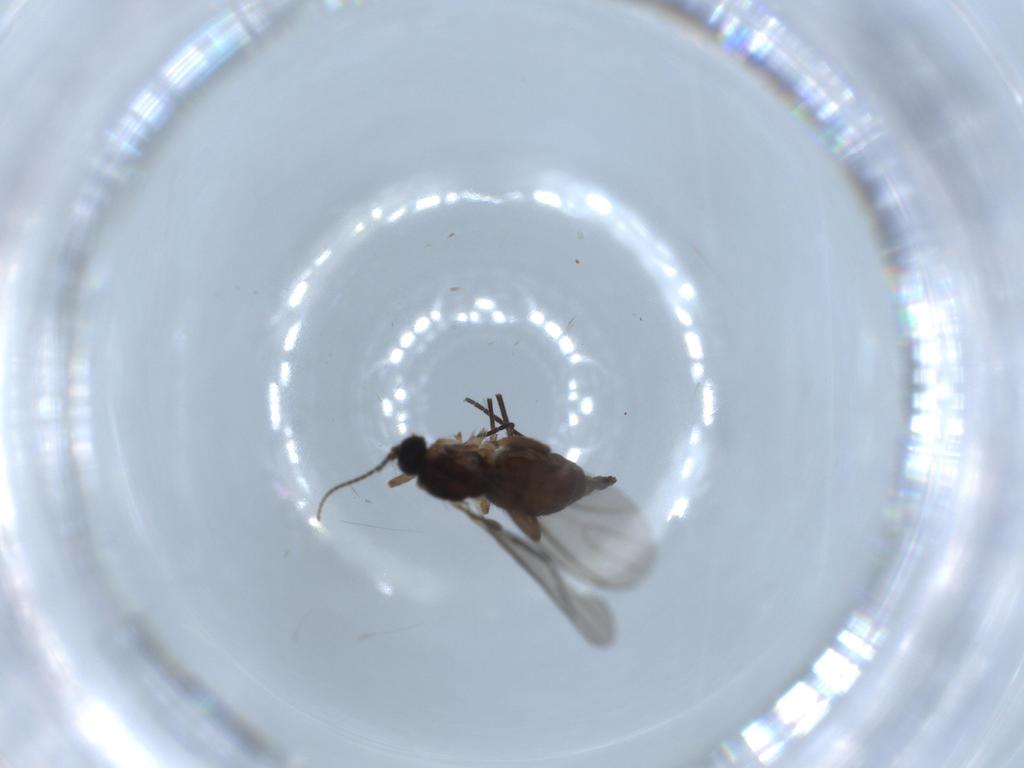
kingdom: Animalia
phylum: Arthropoda
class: Insecta
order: Diptera
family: Sciaridae
